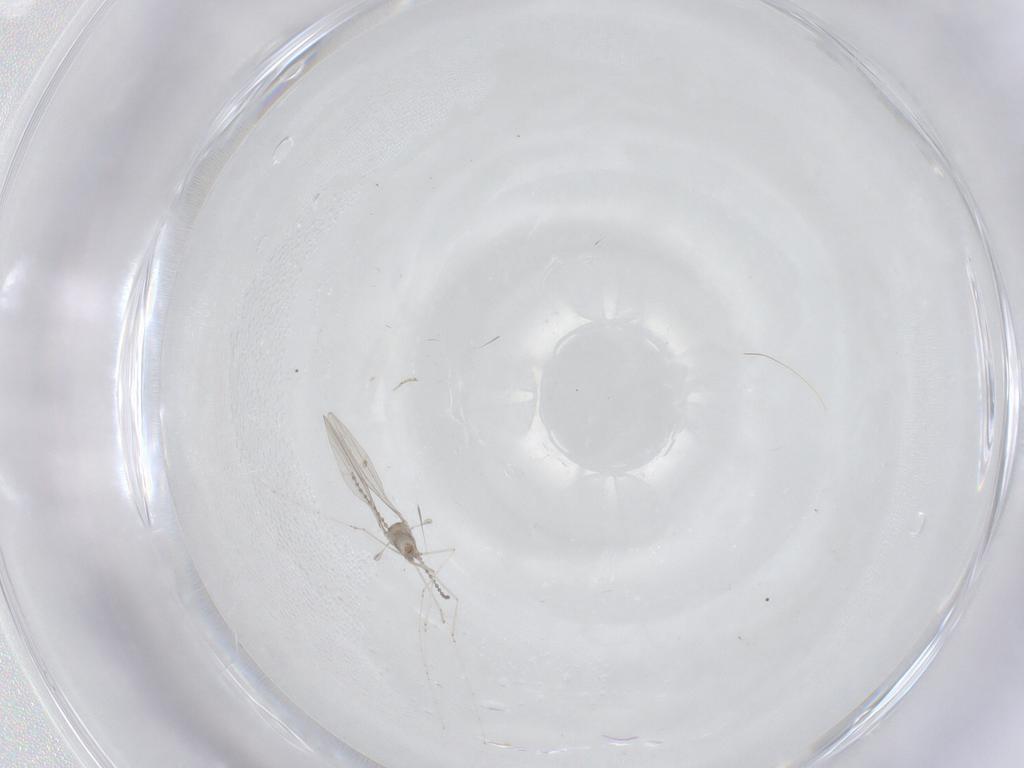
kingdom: Animalia
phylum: Arthropoda
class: Insecta
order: Diptera
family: Cecidomyiidae
